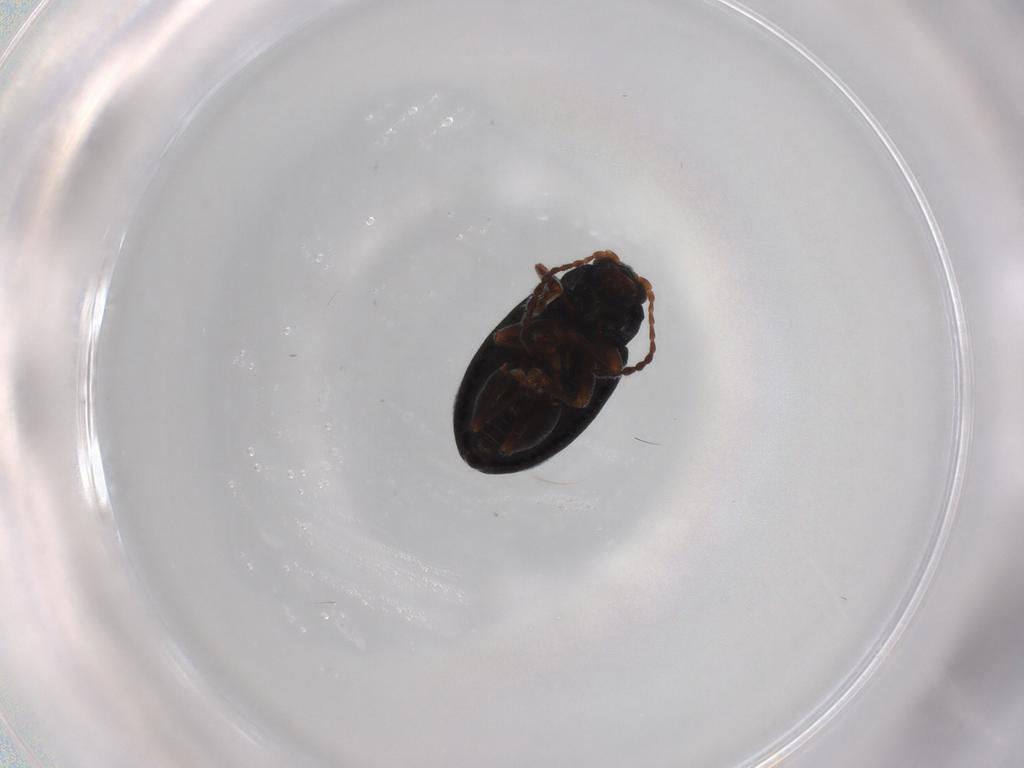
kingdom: Animalia
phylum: Arthropoda
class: Insecta
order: Coleoptera
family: Chrysomelidae
